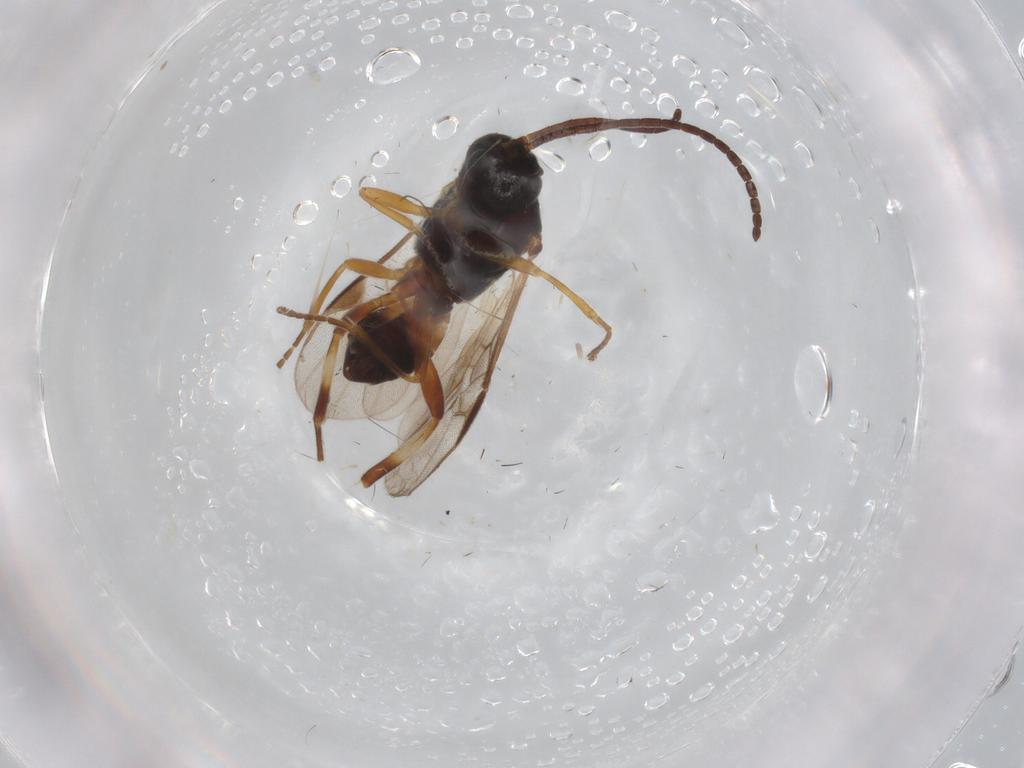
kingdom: Animalia
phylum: Arthropoda
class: Insecta
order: Hymenoptera
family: Braconidae
